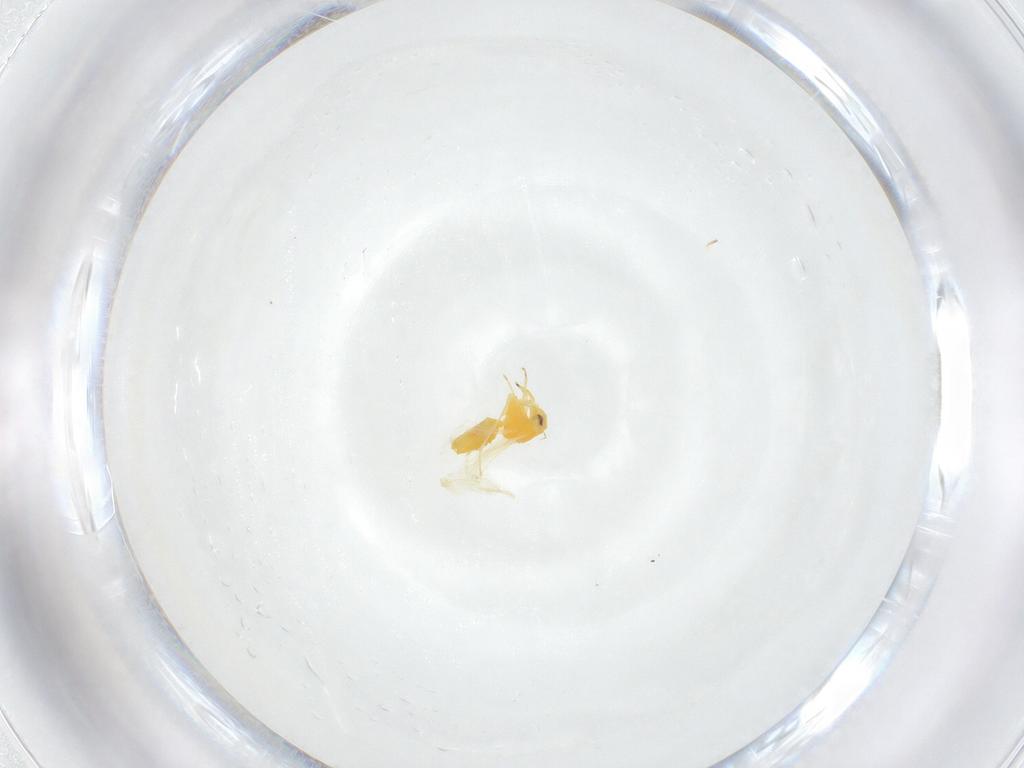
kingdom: Animalia
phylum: Arthropoda
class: Insecta
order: Hemiptera
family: Aleyrodidae
